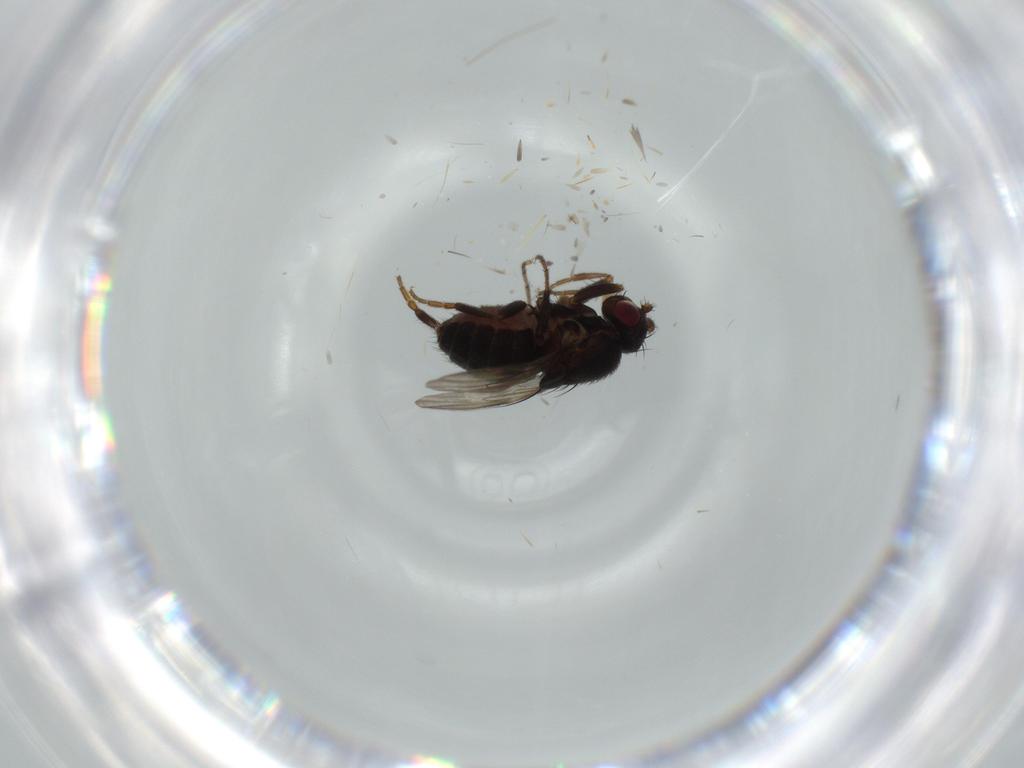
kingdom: Animalia
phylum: Arthropoda
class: Insecta
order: Diptera
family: Sphaeroceridae
